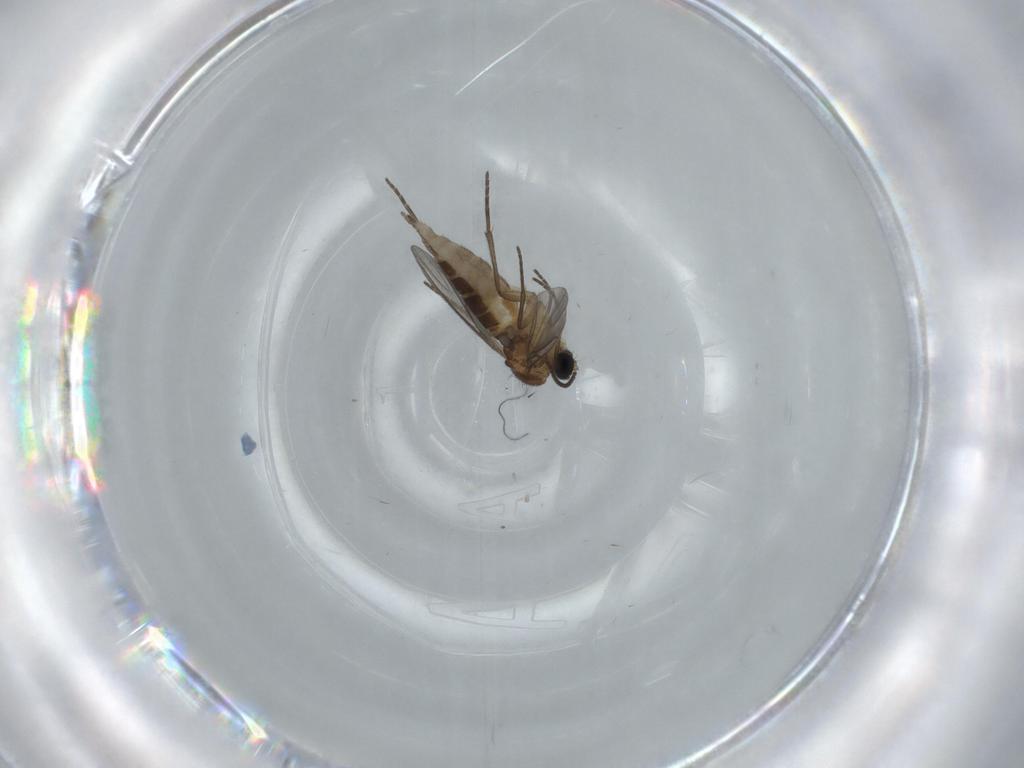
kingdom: Animalia
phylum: Arthropoda
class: Insecta
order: Diptera
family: Sciaridae
